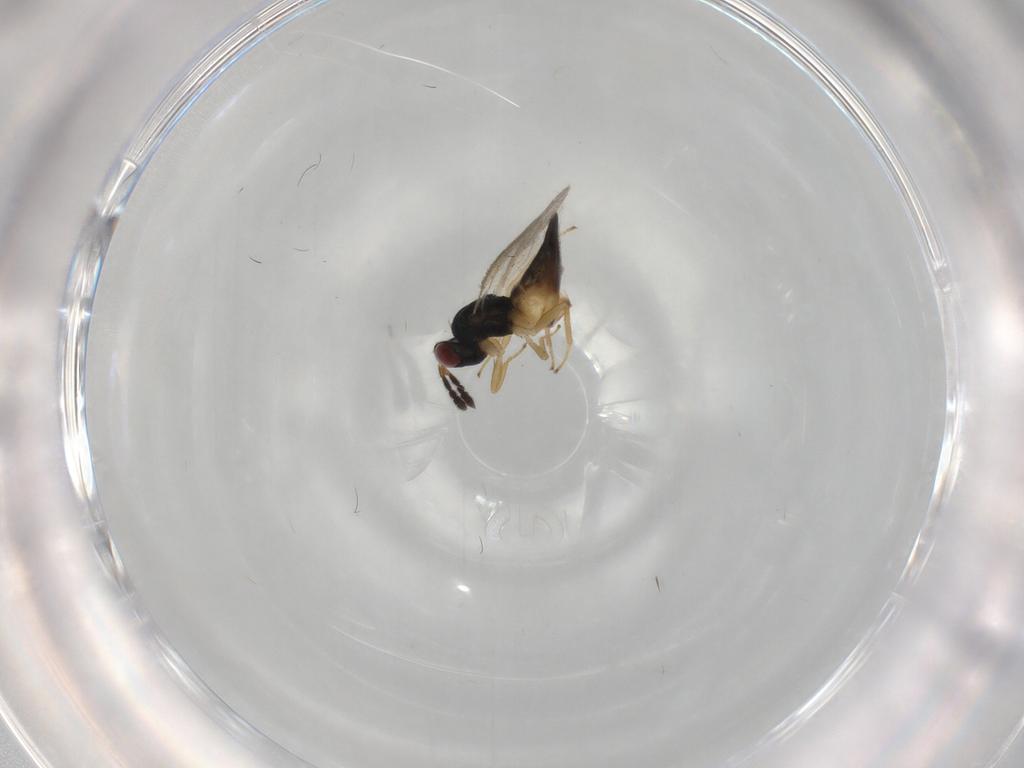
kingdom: Animalia
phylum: Arthropoda
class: Insecta
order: Hymenoptera
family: Eulophidae
